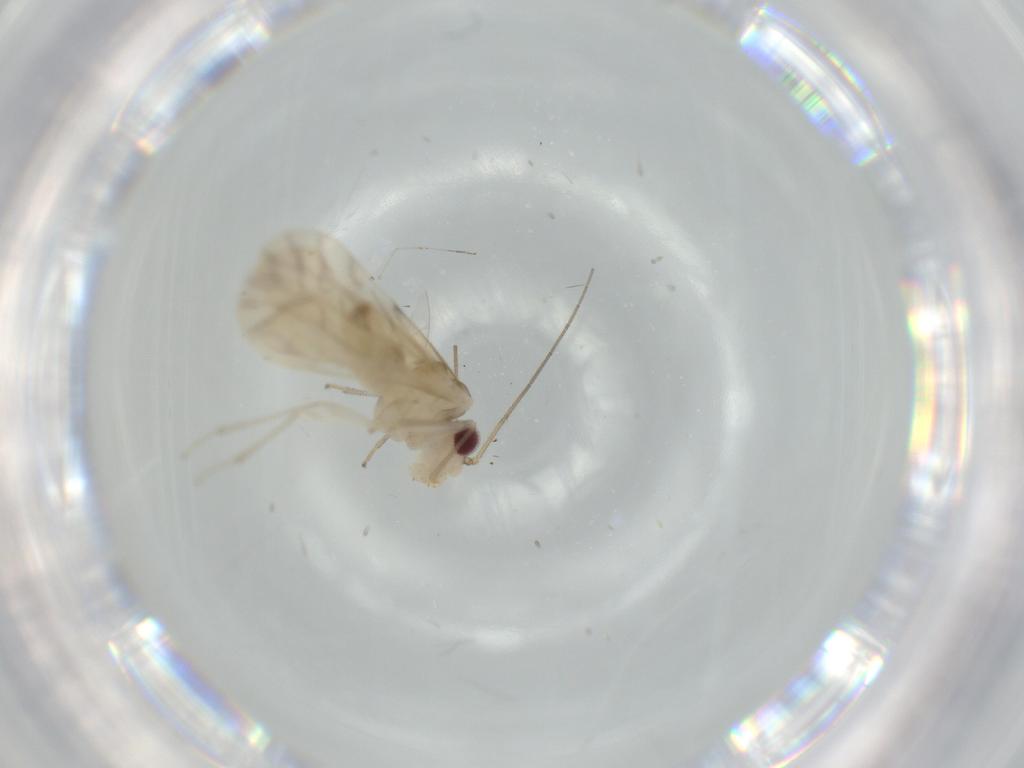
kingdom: Animalia
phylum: Arthropoda
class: Insecta
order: Psocodea
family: Caeciliusidae
